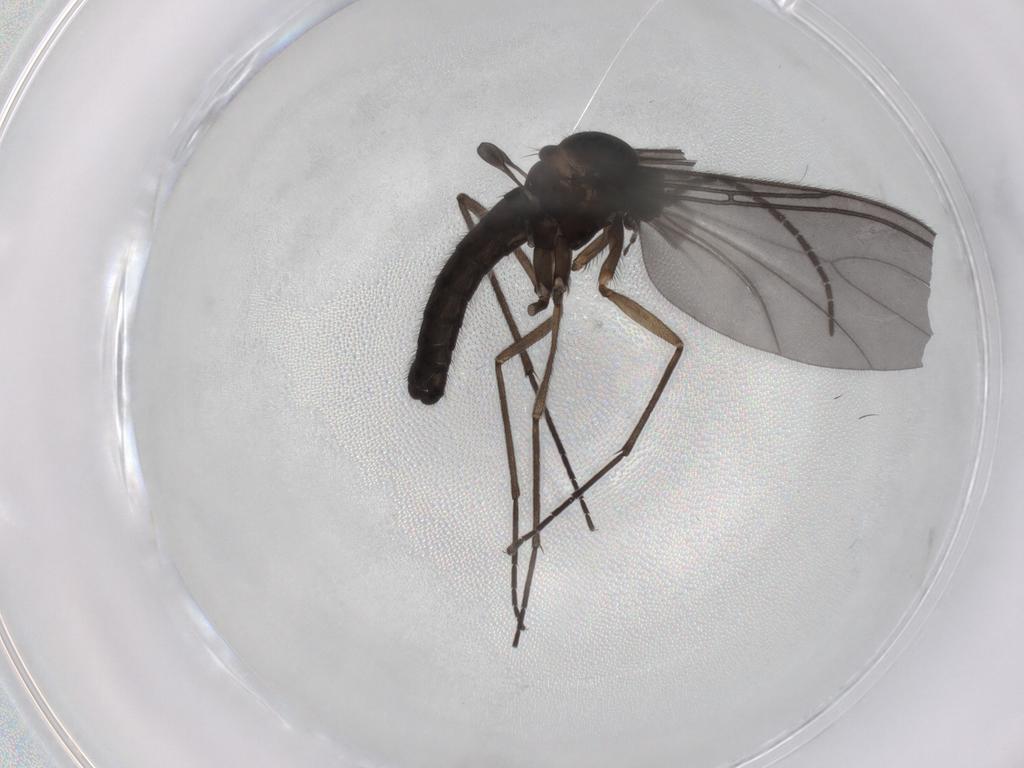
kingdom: Animalia
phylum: Arthropoda
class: Insecta
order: Diptera
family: Sciaridae
